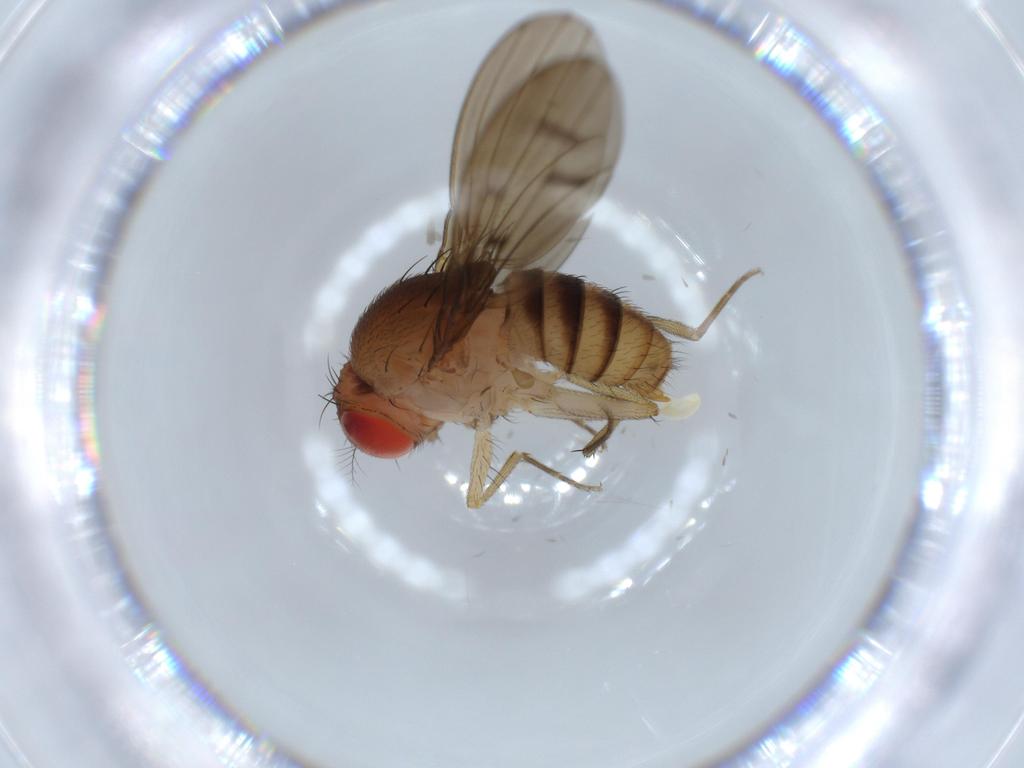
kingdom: Animalia
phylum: Arthropoda
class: Insecta
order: Diptera
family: Drosophilidae
